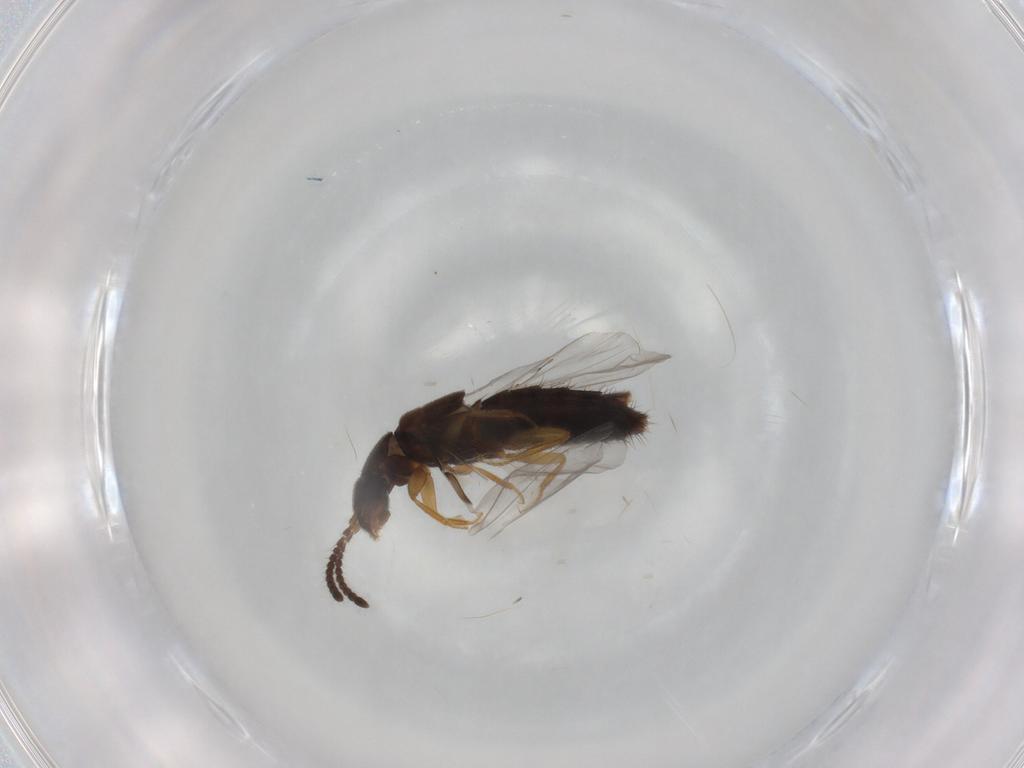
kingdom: Animalia
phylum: Arthropoda
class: Insecta
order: Coleoptera
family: Staphylinidae
